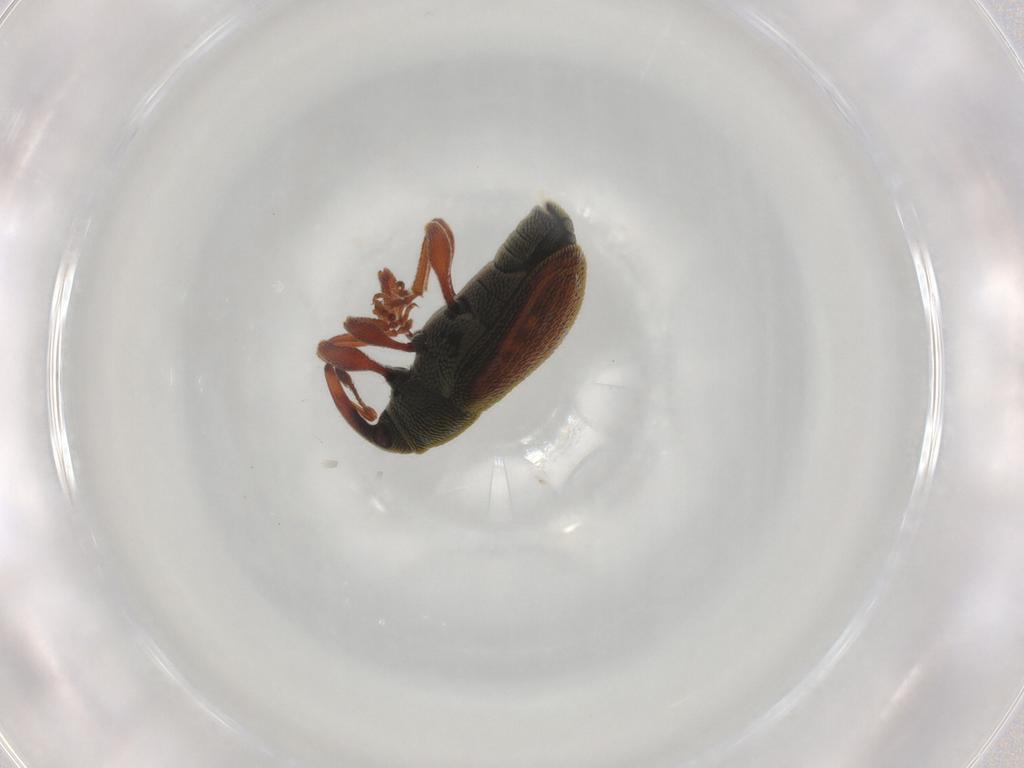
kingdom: Animalia
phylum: Arthropoda
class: Insecta
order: Coleoptera
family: Curculionidae
